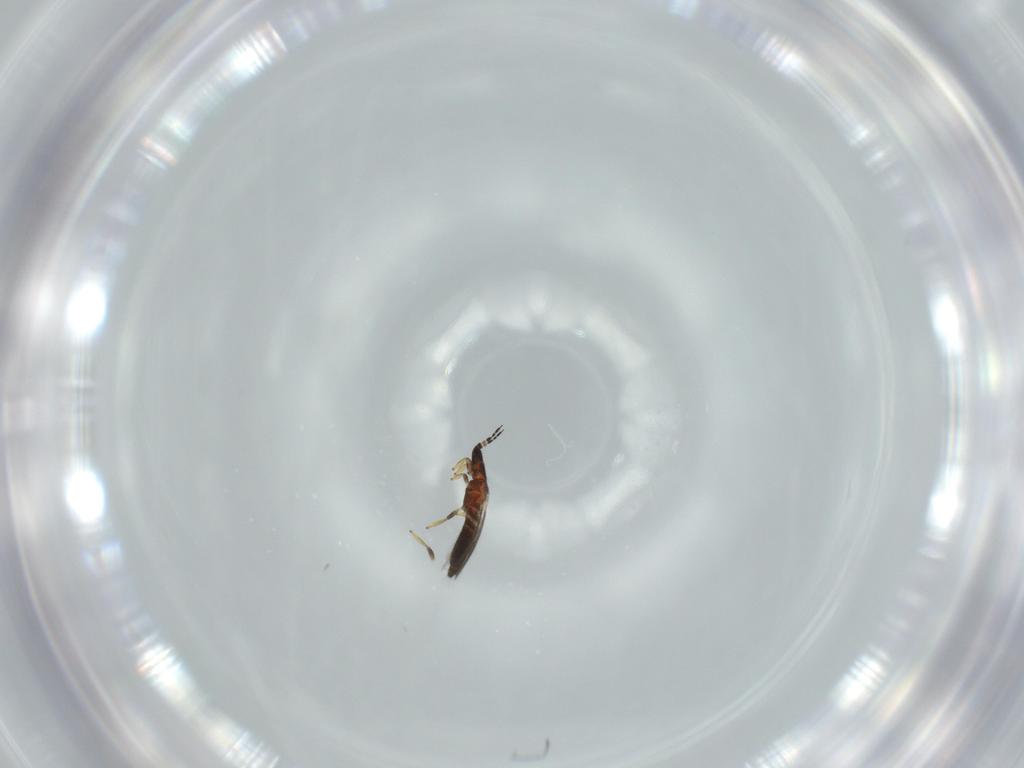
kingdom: Animalia
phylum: Arthropoda
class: Insecta
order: Thysanoptera
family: Thripidae
